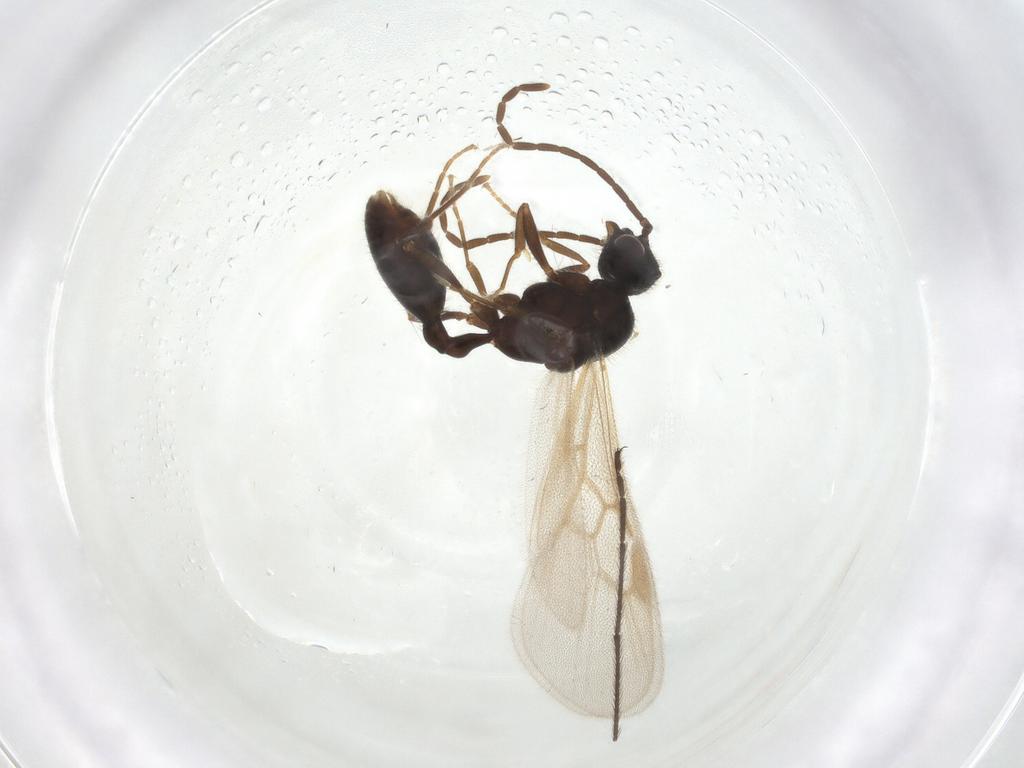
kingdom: Animalia
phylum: Arthropoda
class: Insecta
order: Hymenoptera
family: Formicidae
